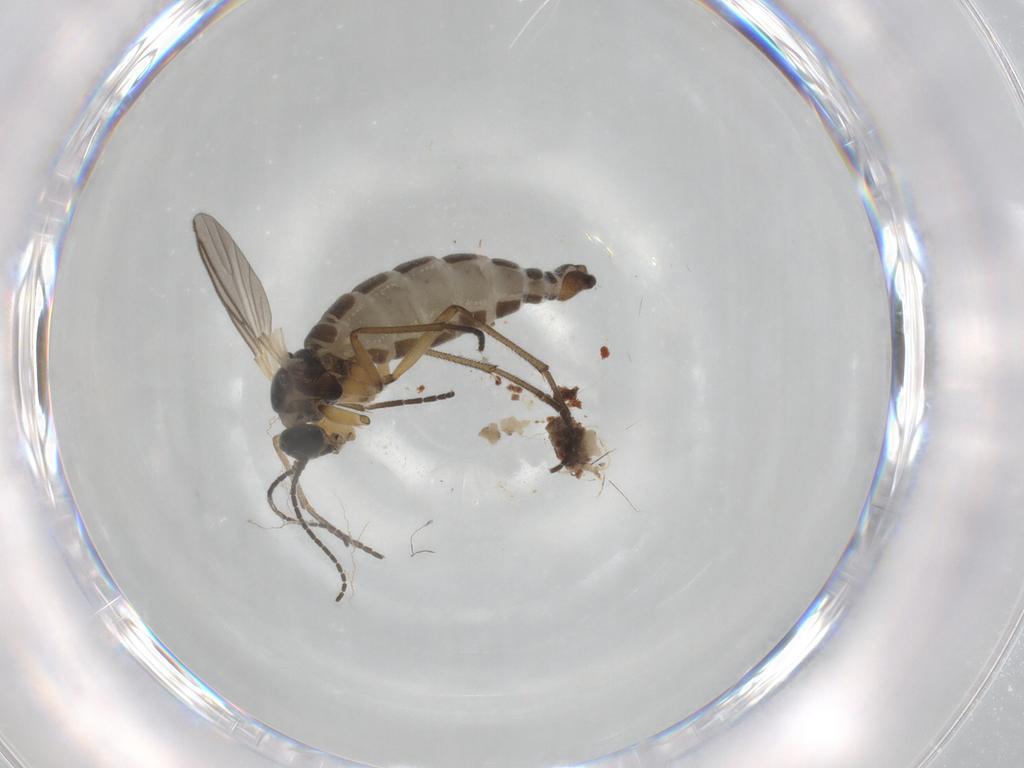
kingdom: Animalia
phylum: Arthropoda
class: Insecta
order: Diptera
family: Chironomidae
